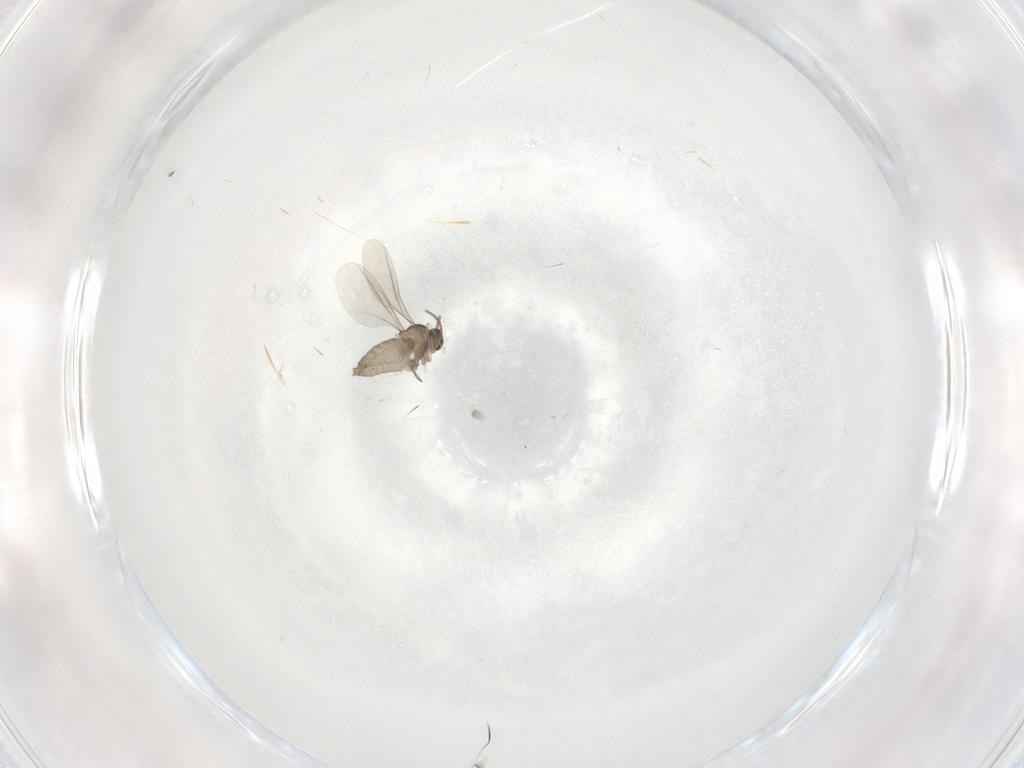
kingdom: Animalia
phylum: Arthropoda
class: Insecta
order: Diptera
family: Cecidomyiidae
